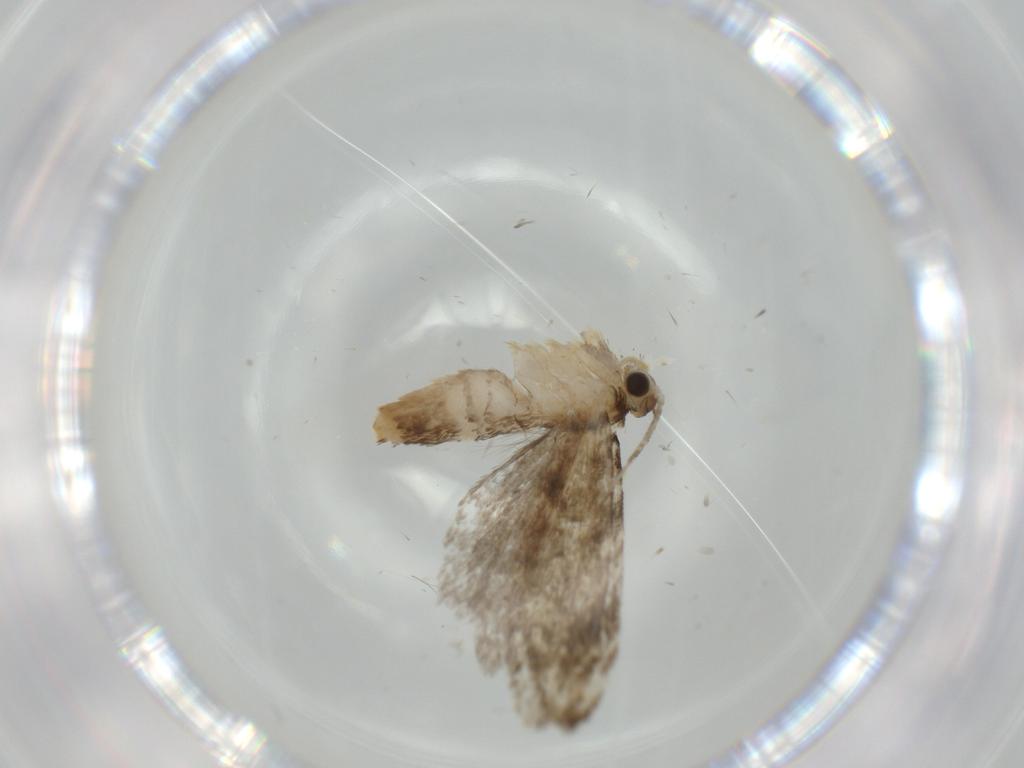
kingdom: Animalia
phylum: Arthropoda
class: Insecta
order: Lepidoptera
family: Tineidae
